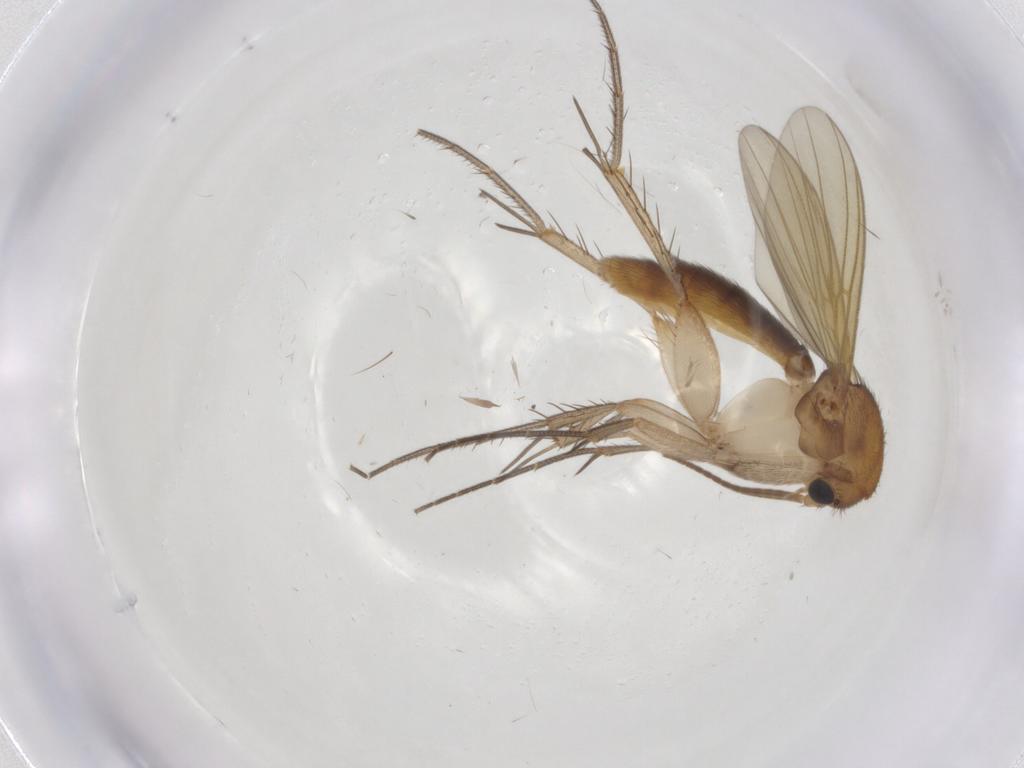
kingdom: Animalia
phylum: Arthropoda
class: Insecta
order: Diptera
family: Mycetophilidae
